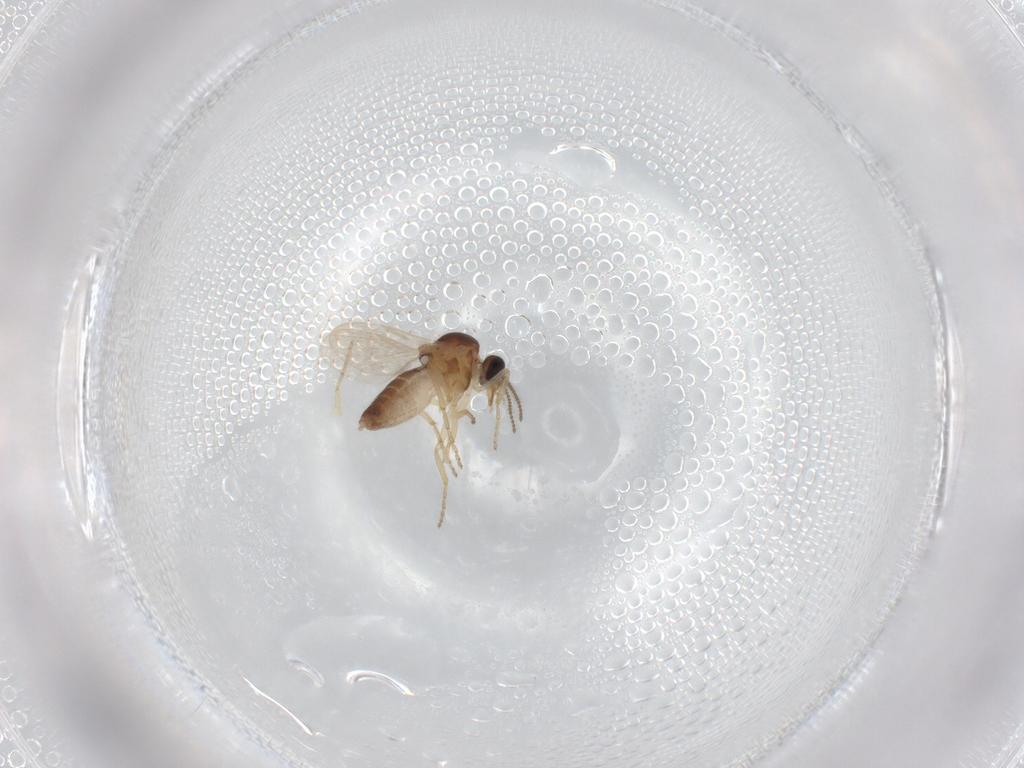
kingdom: Animalia
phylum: Arthropoda
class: Insecta
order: Diptera
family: Ceratopogonidae
